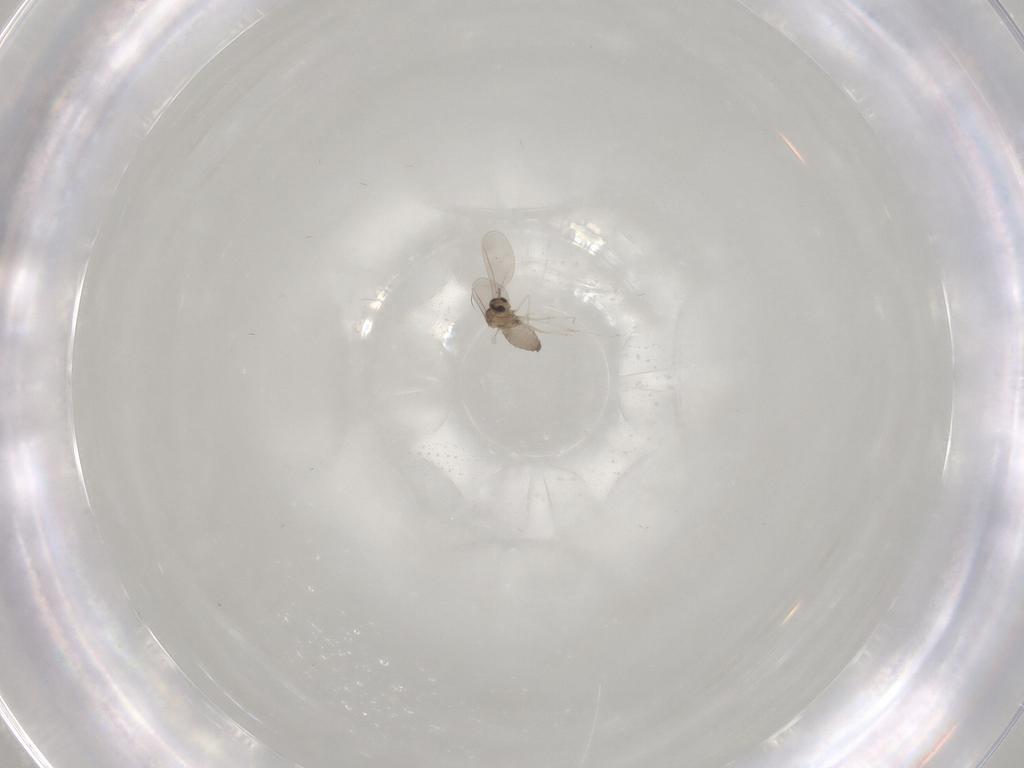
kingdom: Animalia
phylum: Arthropoda
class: Insecta
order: Diptera
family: Cecidomyiidae
